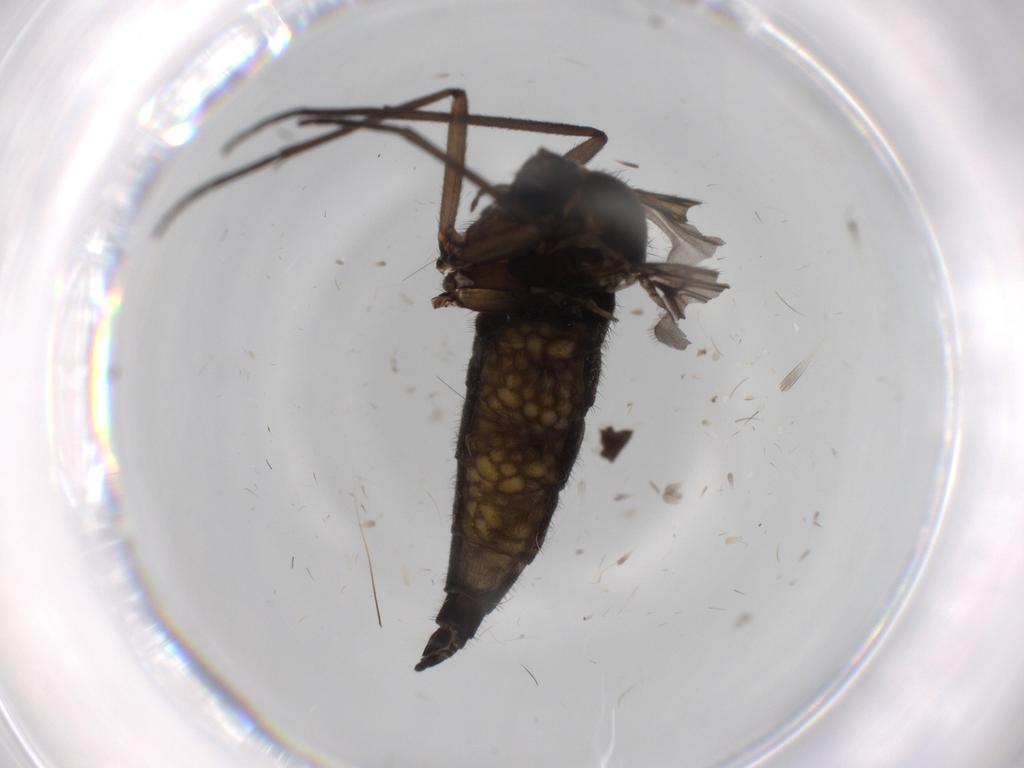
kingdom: Animalia
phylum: Arthropoda
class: Insecta
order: Diptera
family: Sciaridae
